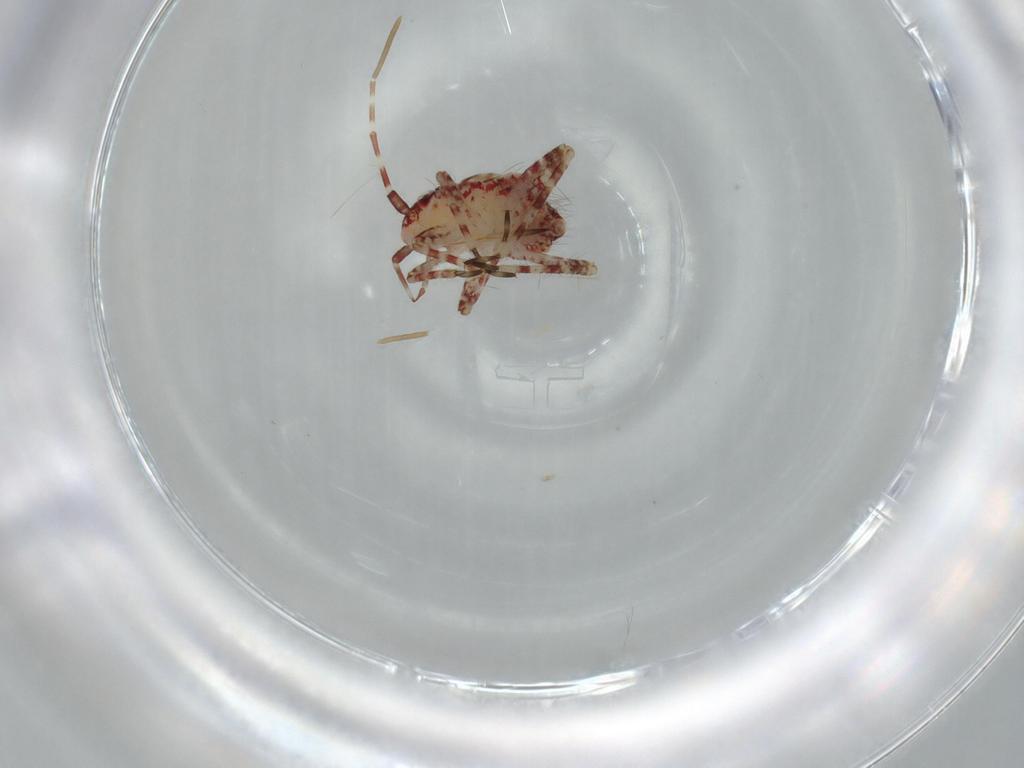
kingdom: Animalia
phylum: Arthropoda
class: Insecta
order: Hemiptera
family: Miridae
